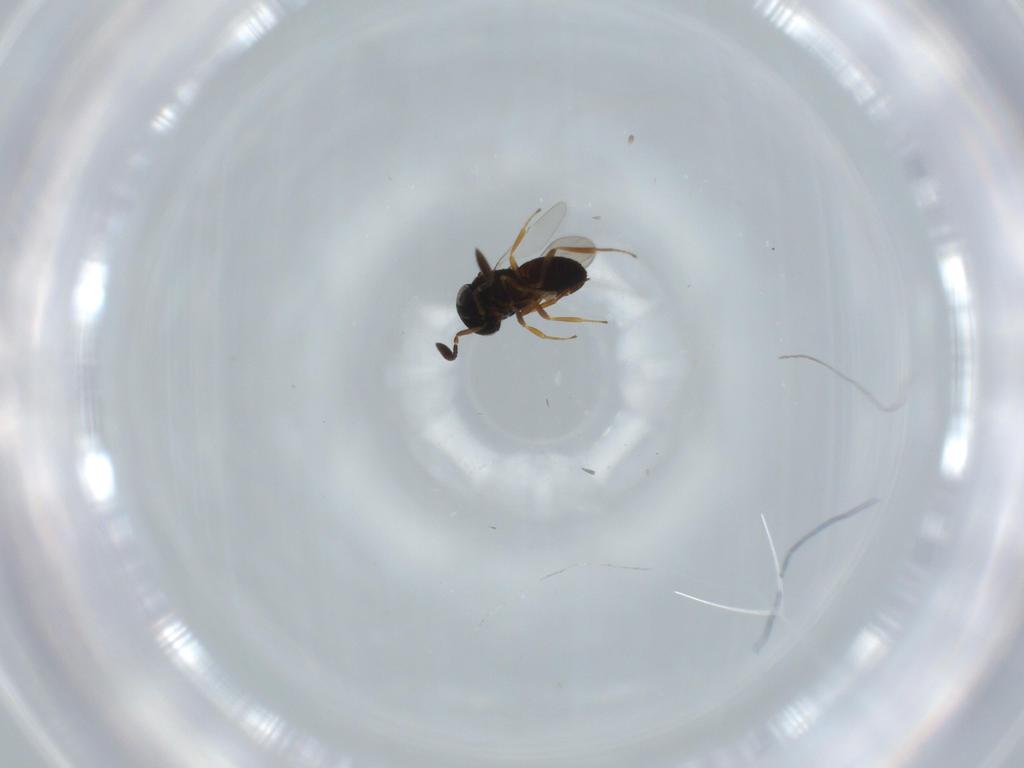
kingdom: Animalia
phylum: Arthropoda
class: Insecta
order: Hymenoptera
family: Scelionidae
